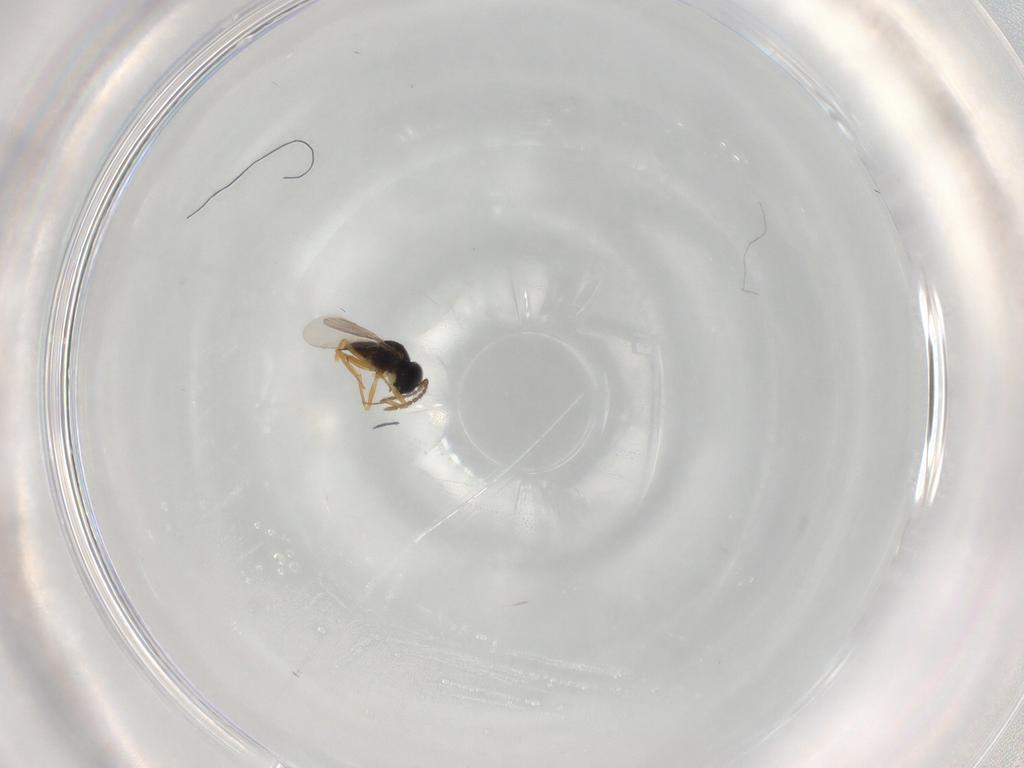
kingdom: Animalia
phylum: Arthropoda
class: Insecta
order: Hymenoptera
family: Encyrtidae
